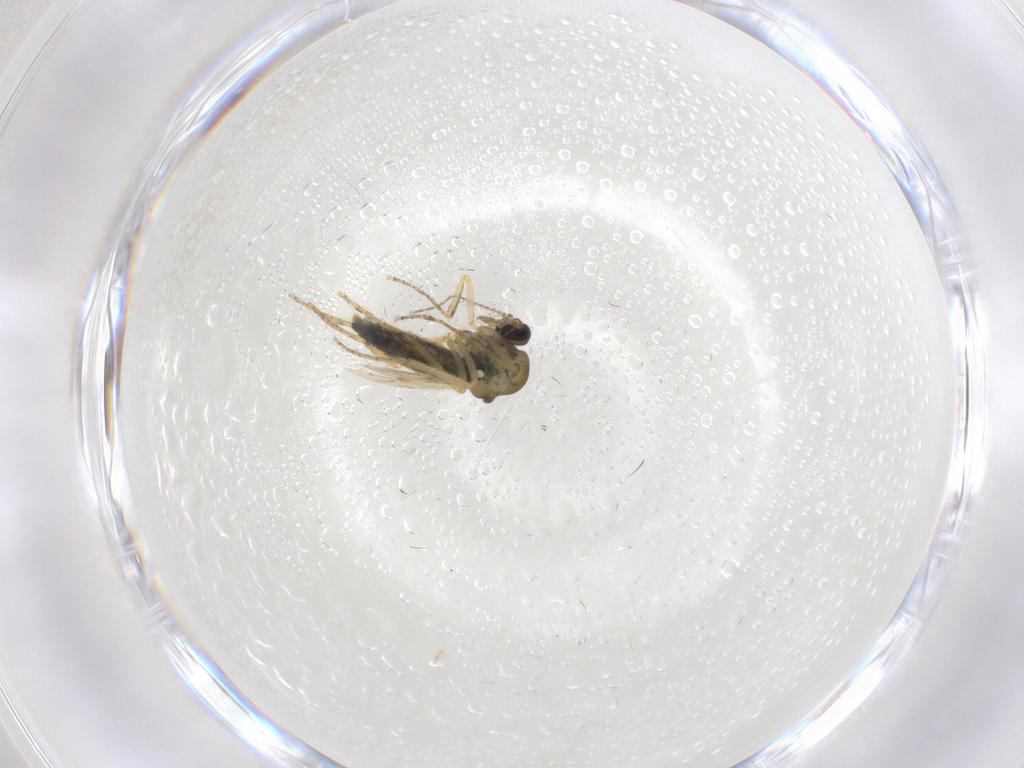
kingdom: Animalia
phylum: Arthropoda
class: Insecta
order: Diptera
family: Ceratopogonidae
